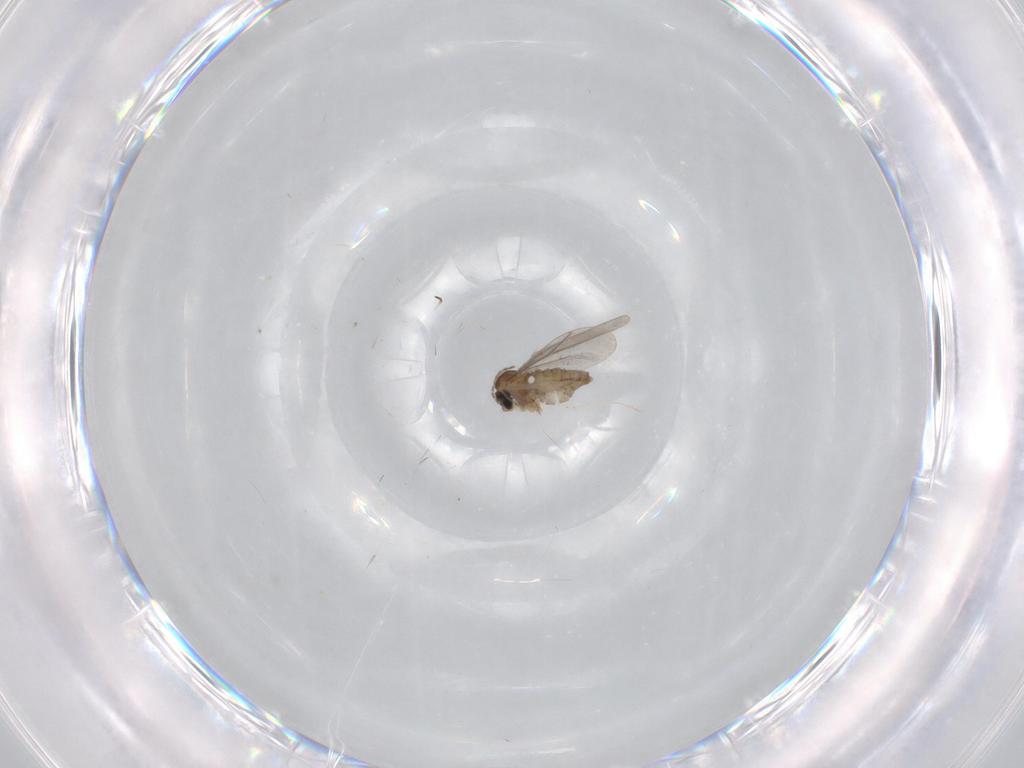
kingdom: Animalia
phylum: Arthropoda
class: Insecta
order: Diptera
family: Cecidomyiidae
